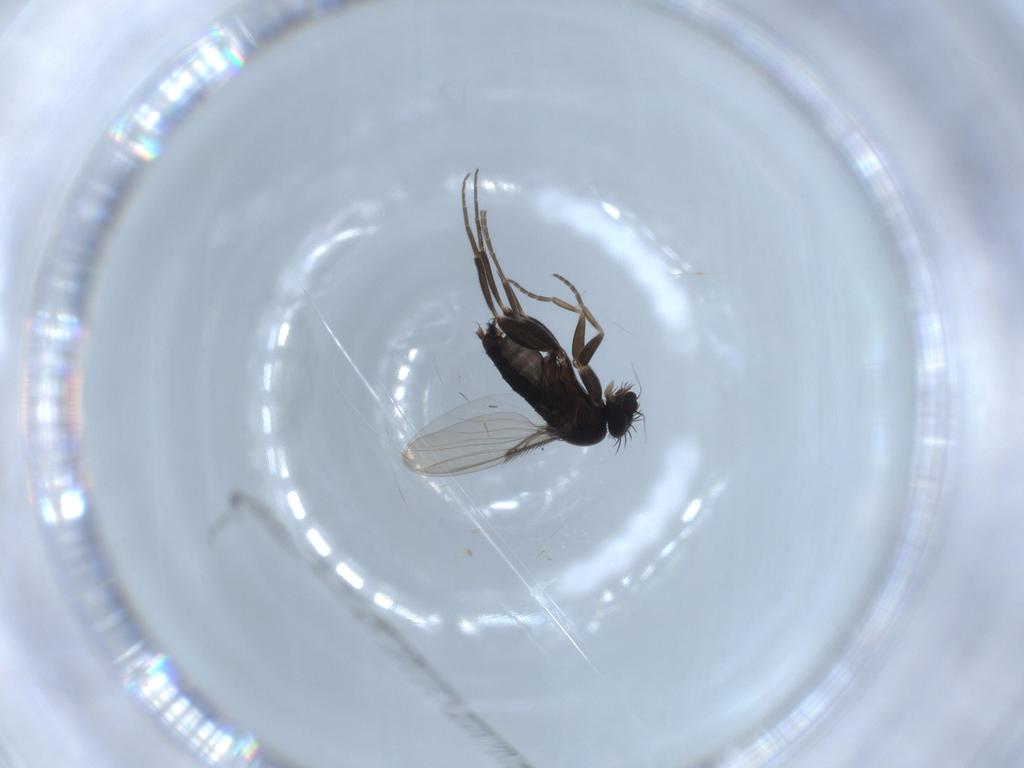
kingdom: Animalia
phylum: Arthropoda
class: Insecta
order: Diptera
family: Phoridae
